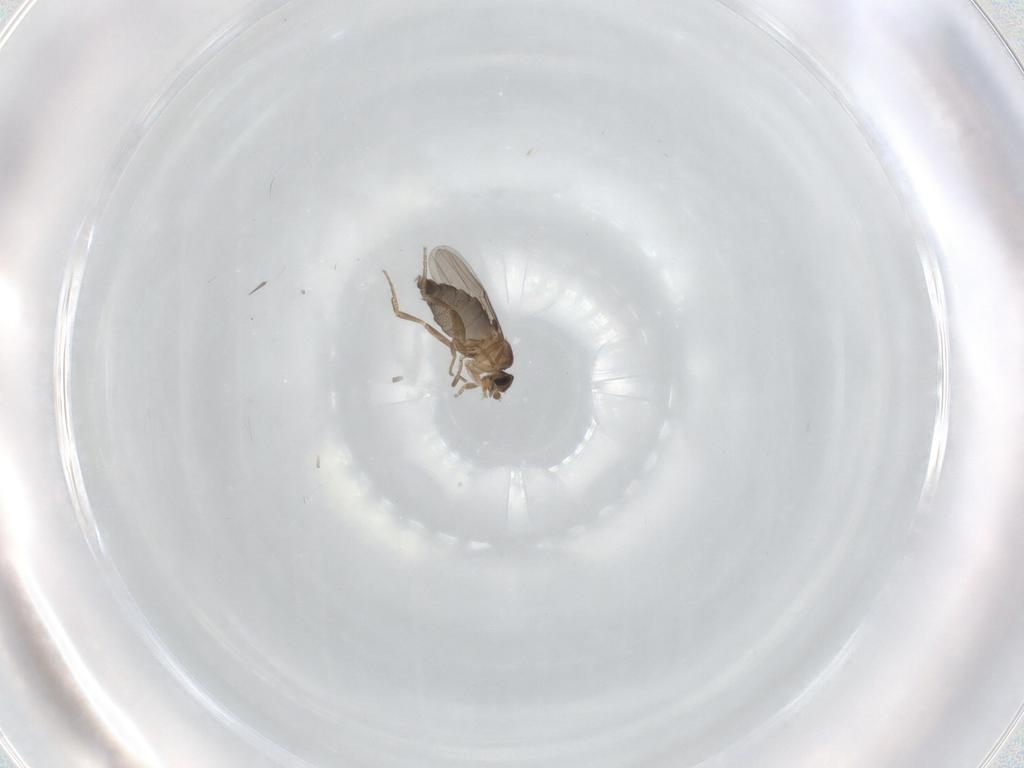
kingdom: Animalia
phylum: Arthropoda
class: Insecta
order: Diptera
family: Phoridae
